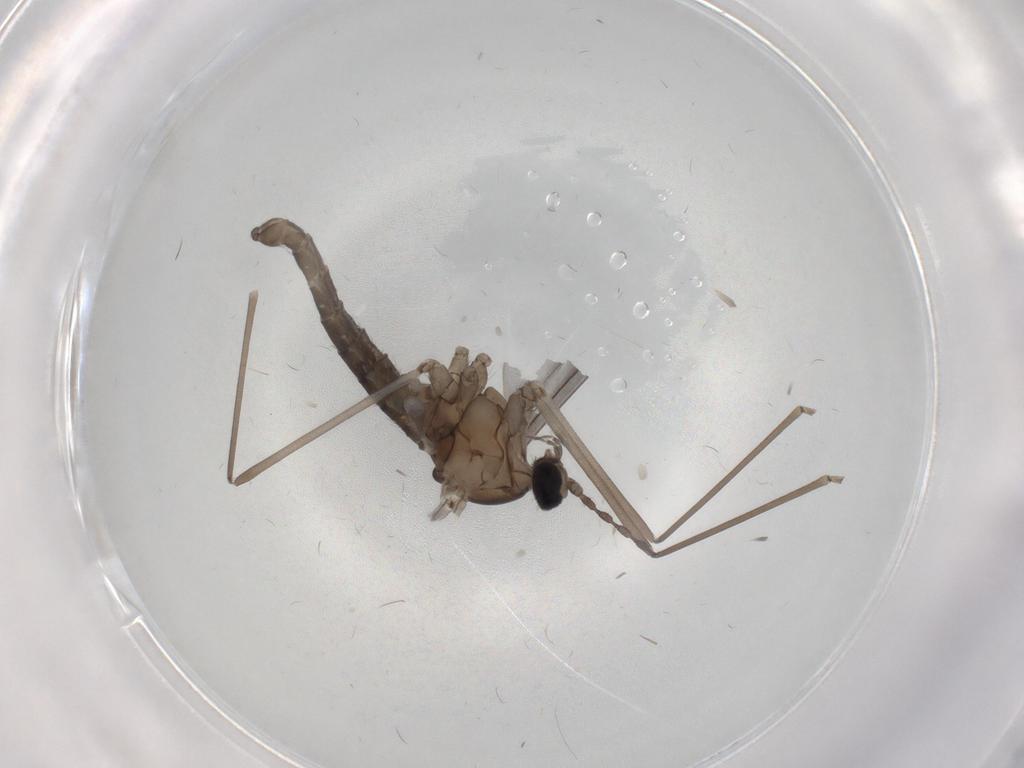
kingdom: Animalia
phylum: Arthropoda
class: Insecta
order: Diptera
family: Cecidomyiidae
